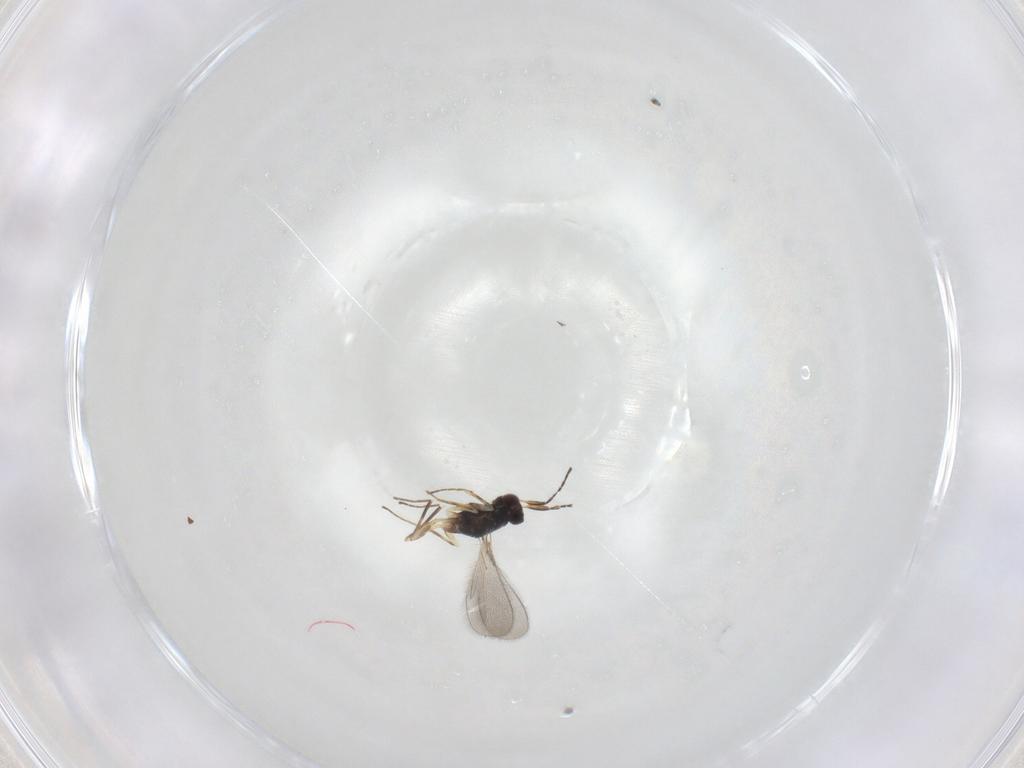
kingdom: Animalia
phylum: Arthropoda
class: Insecta
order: Hymenoptera
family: Mymaridae
